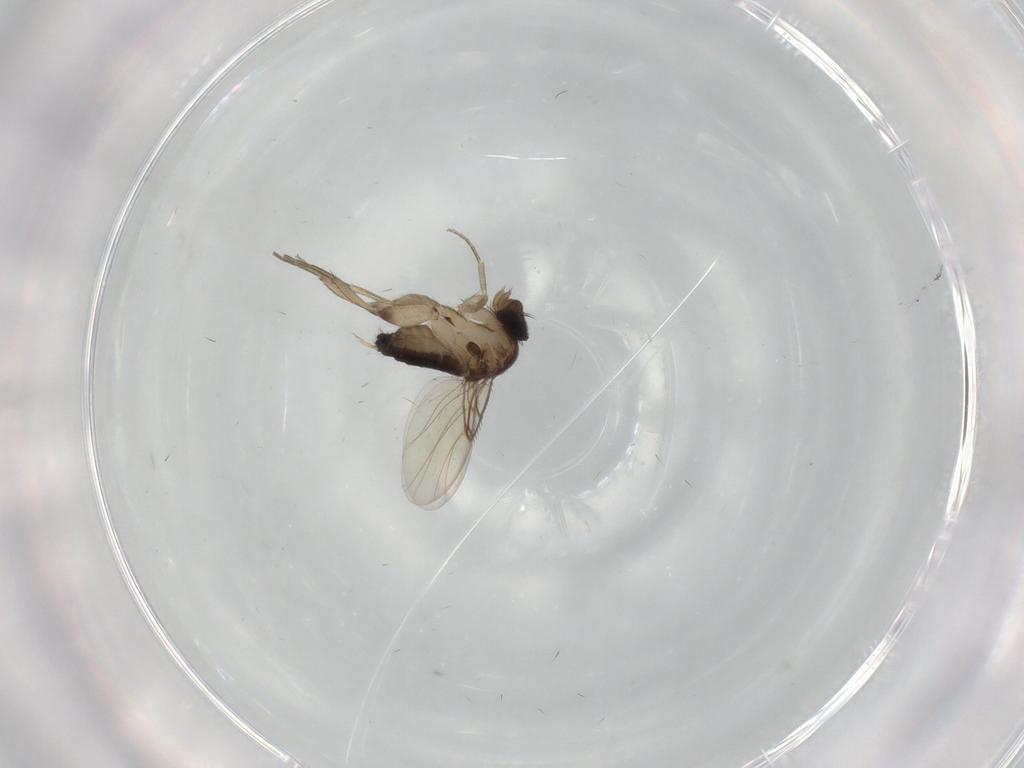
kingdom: Animalia
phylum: Arthropoda
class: Insecta
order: Diptera
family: Phoridae
